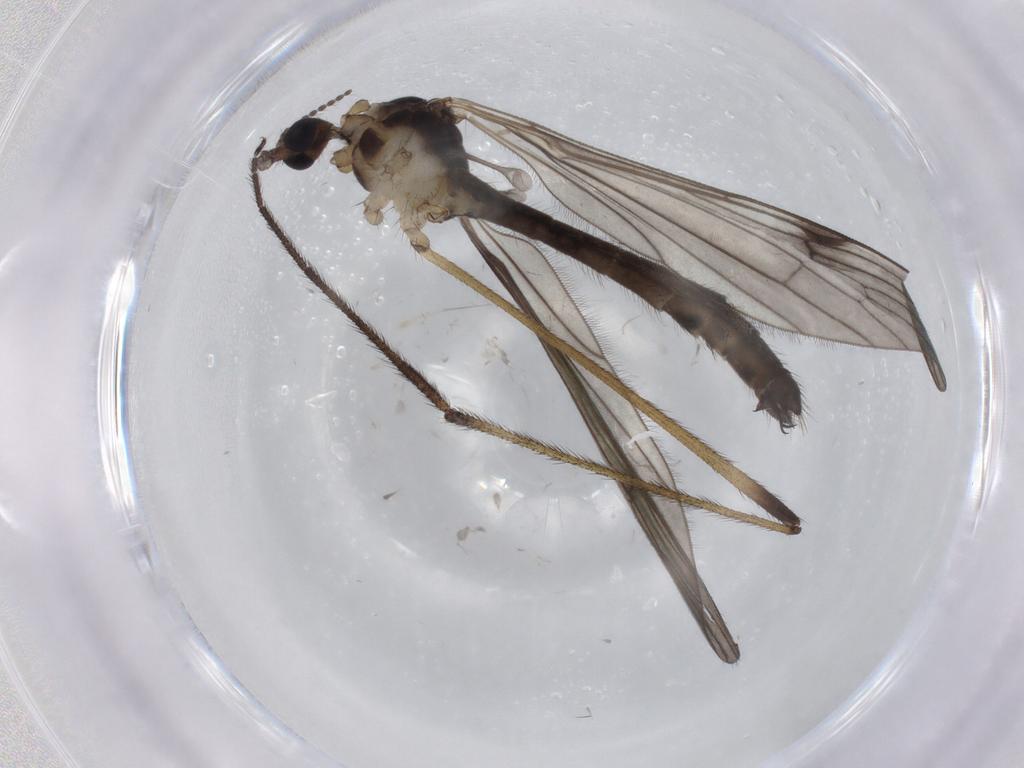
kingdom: Animalia
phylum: Arthropoda
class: Insecta
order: Diptera
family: Limoniidae
